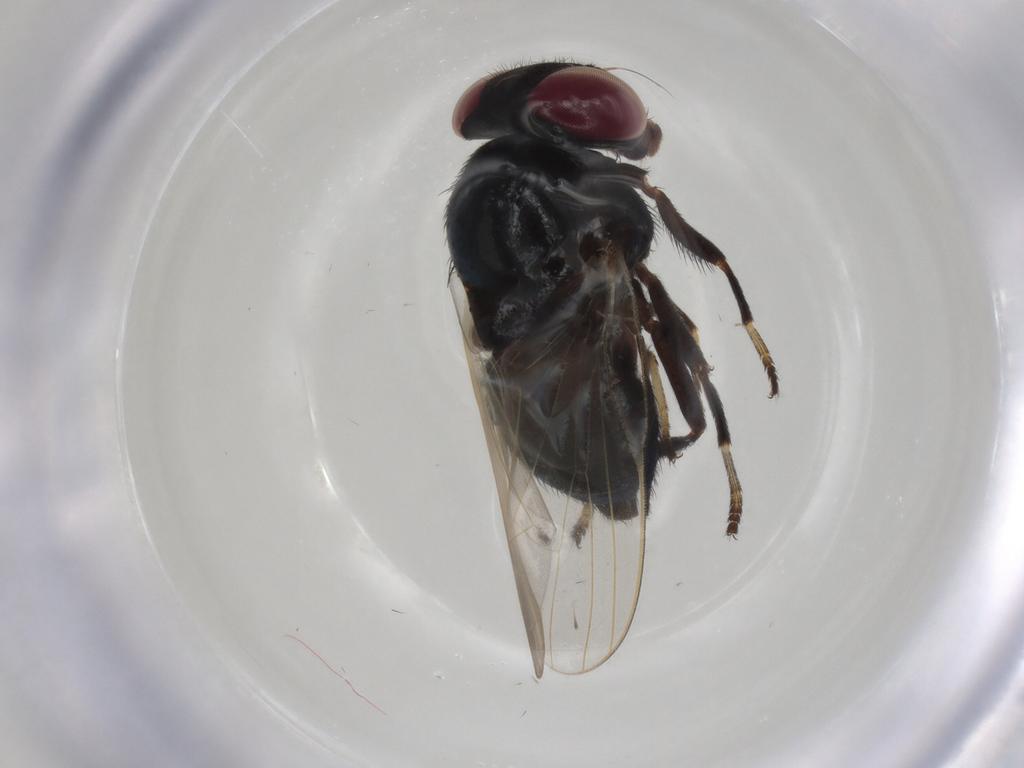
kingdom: Animalia
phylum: Arthropoda
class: Insecta
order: Diptera
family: Lonchaeidae
